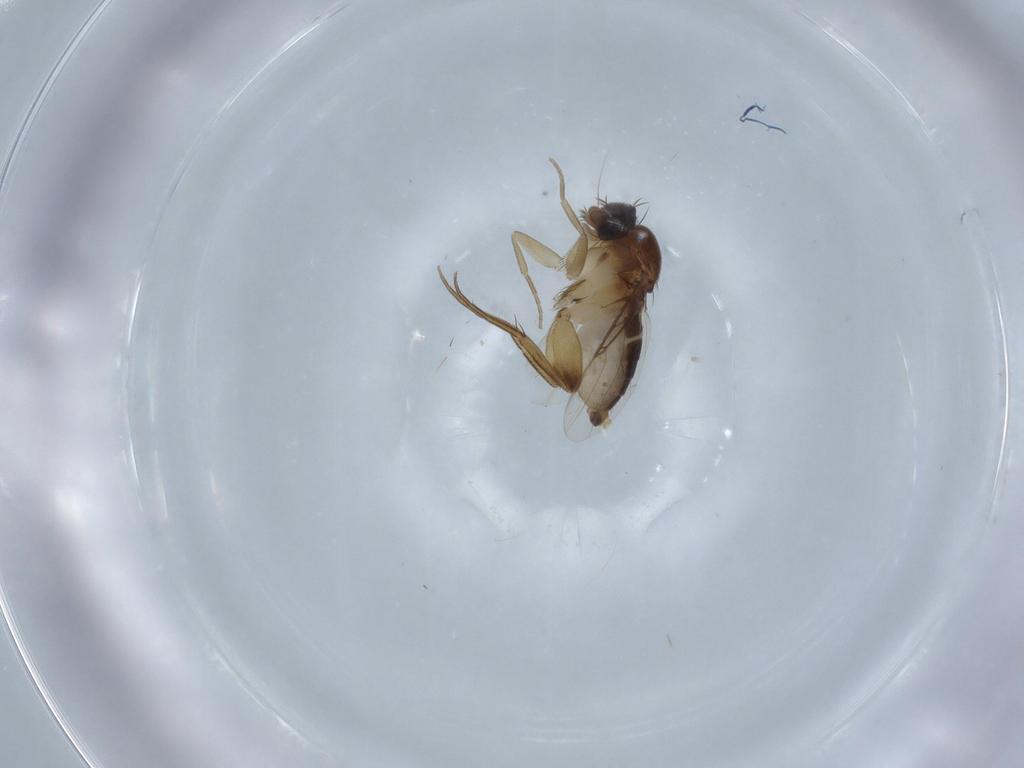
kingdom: Animalia
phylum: Arthropoda
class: Insecta
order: Diptera
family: Phoridae
